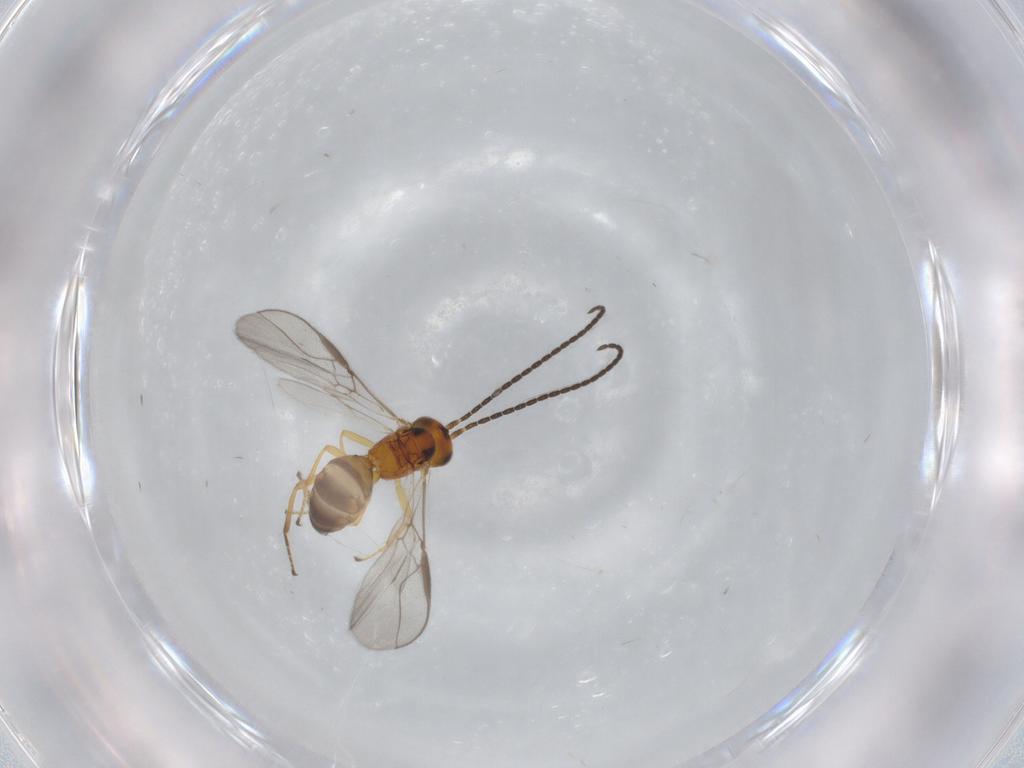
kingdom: Animalia
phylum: Arthropoda
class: Insecta
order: Hymenoptera
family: Braconidae
